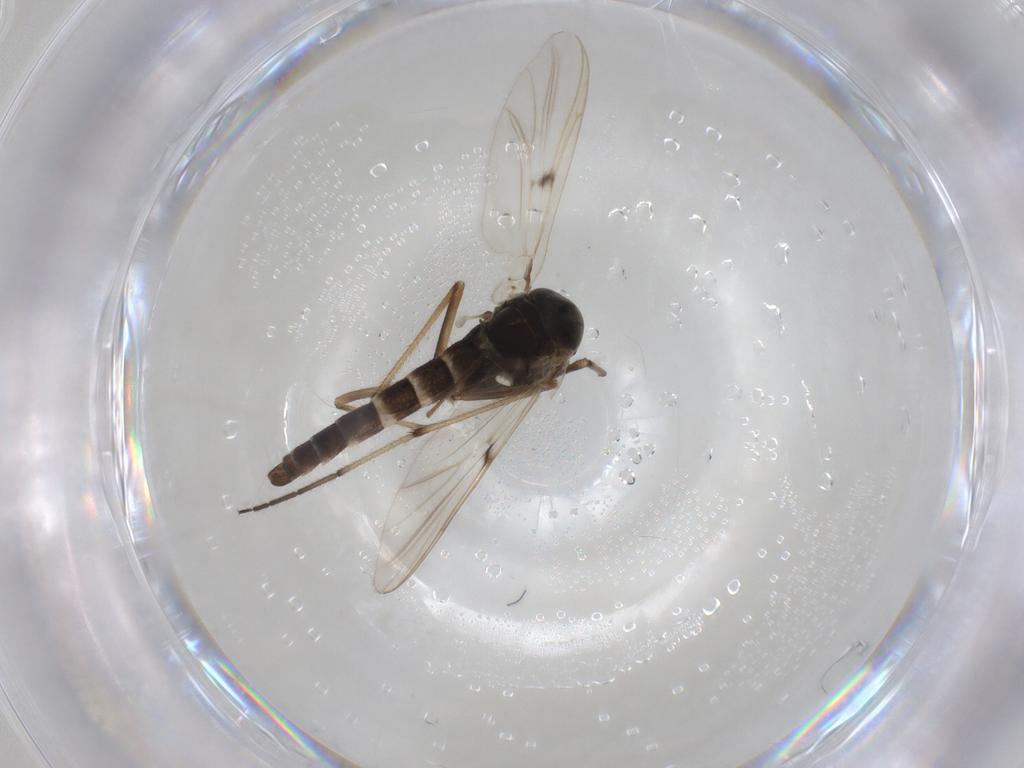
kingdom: Animalia
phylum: Arthropoda
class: Insecta
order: Diptera
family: Chironomidae
